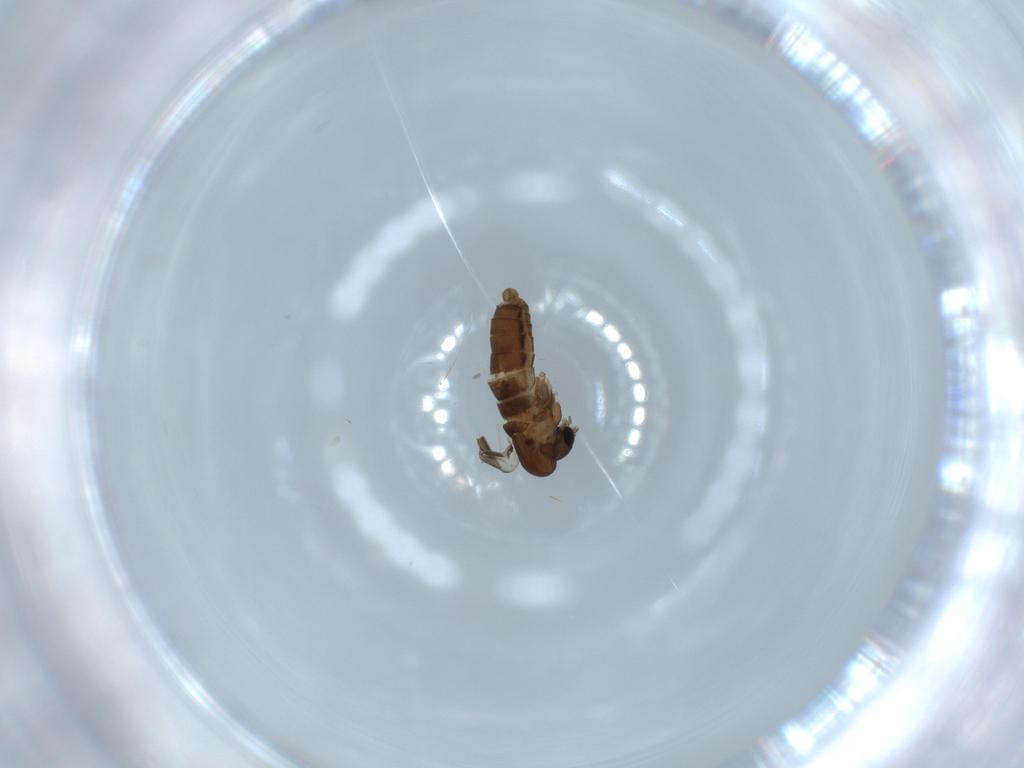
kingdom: Animalia
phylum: Arthropoda
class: Insecta
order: Diptera
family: Psychodidae
